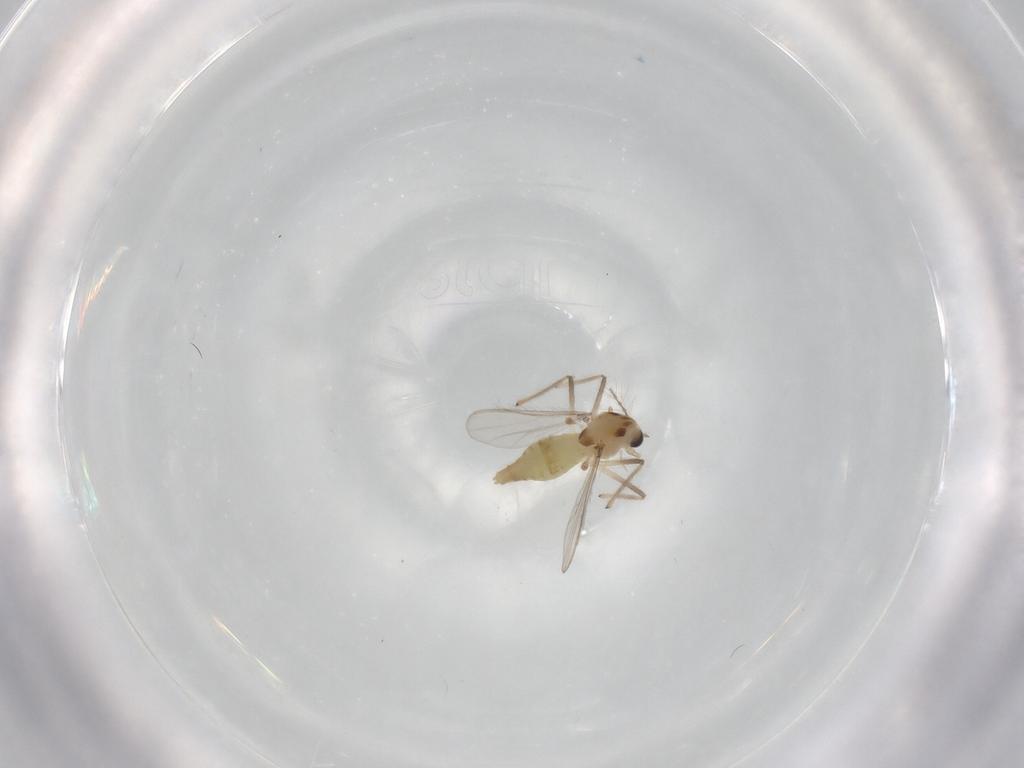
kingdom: Animalia
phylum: Arthropoda
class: Insecta
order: Diptera
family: Chironomidae
